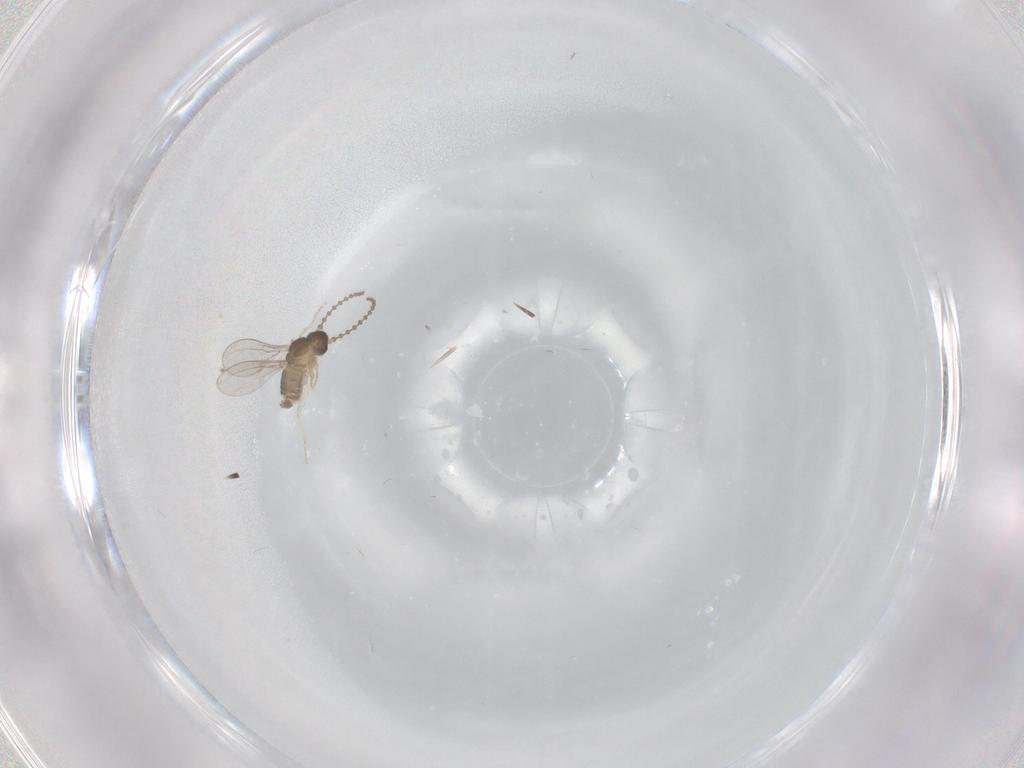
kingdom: Animalia
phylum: Arthropoda
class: Insecta
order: Diptera
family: Cecidomyiidae
